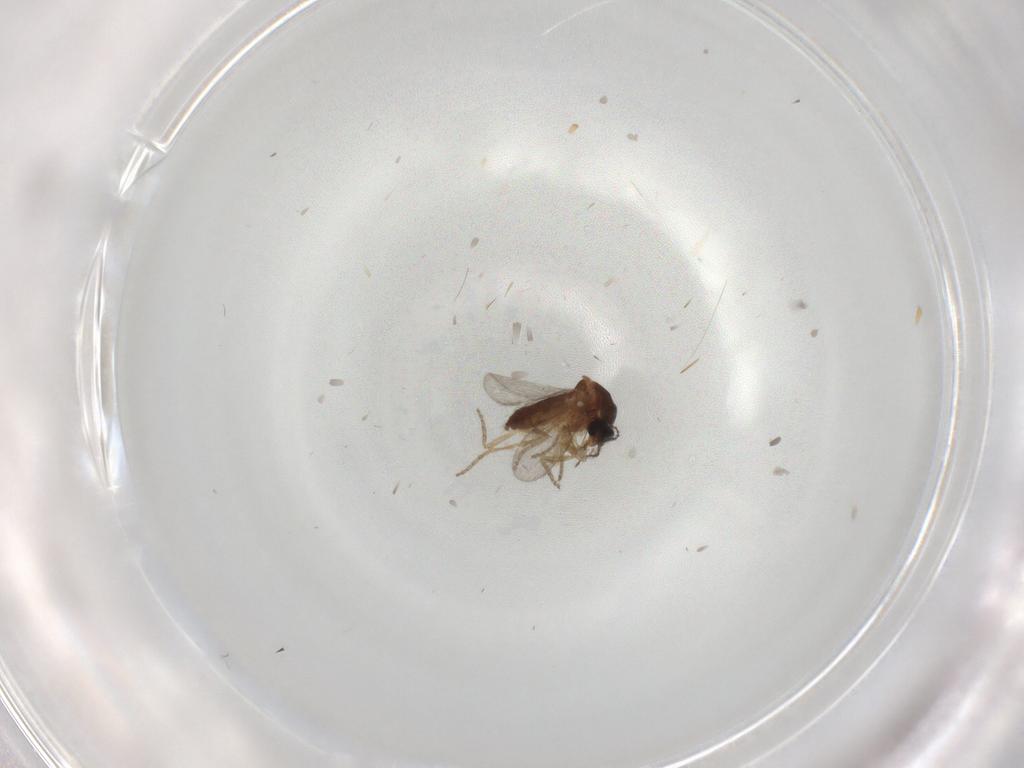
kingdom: Animalia
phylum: Arthropoda
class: Insecta
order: Diptera
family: Ceratopogonidae
